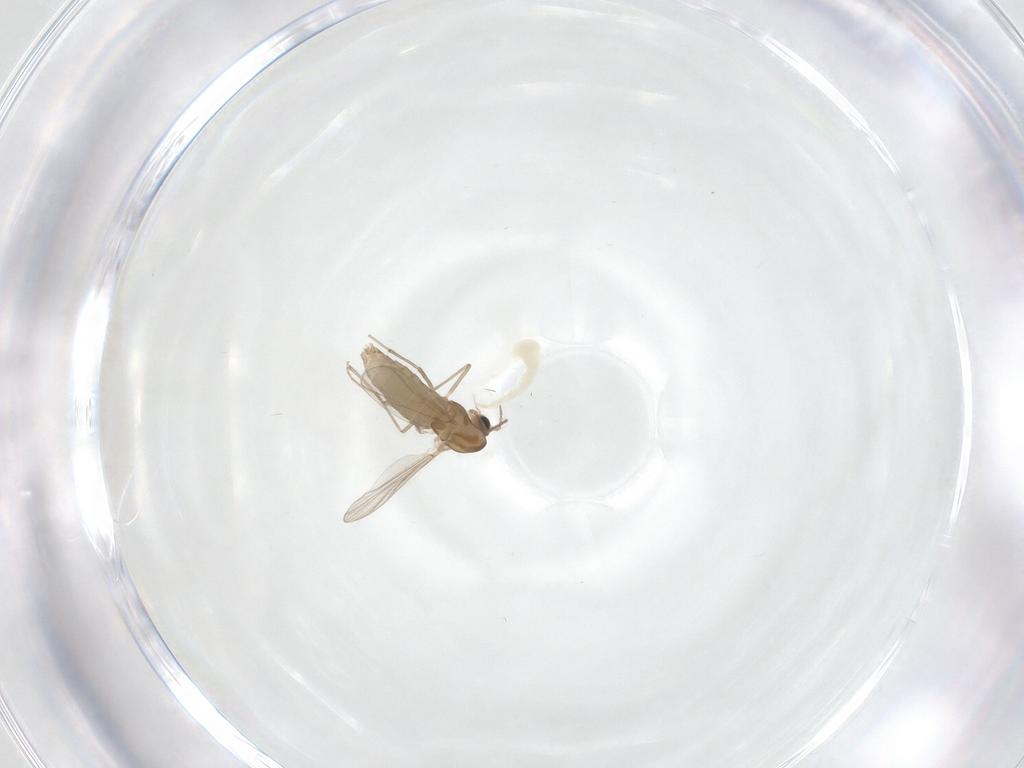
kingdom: Animalia
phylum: Arthropoda
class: Insecta
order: Diptera
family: Chironomidae
